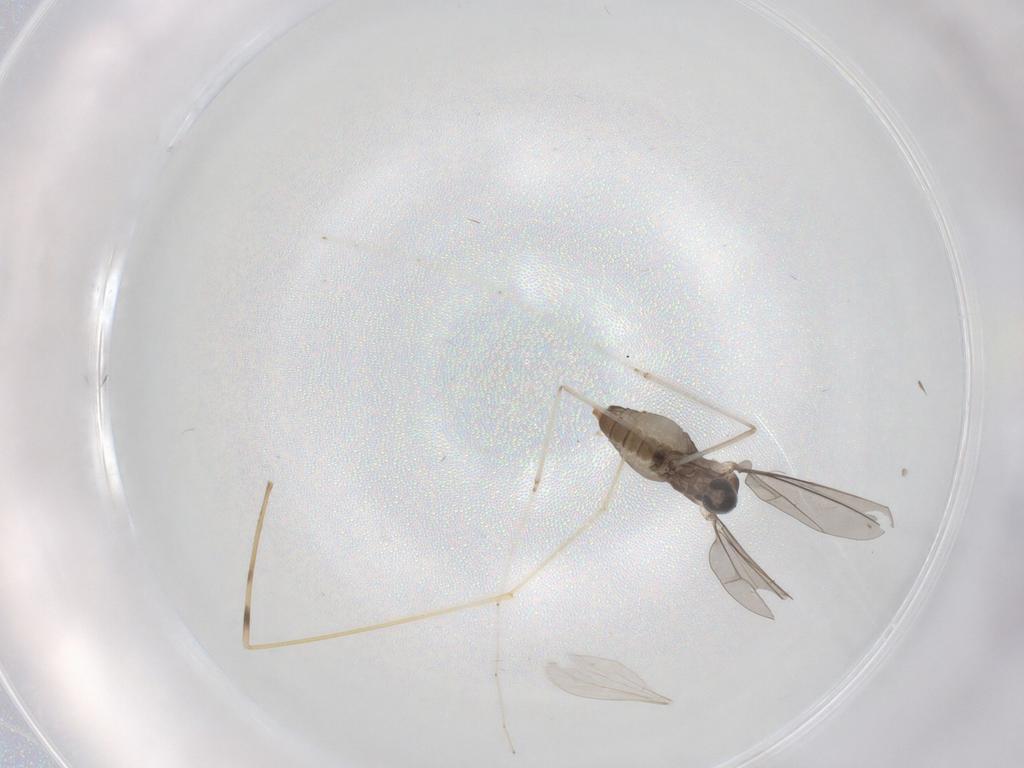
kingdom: Animalia
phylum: Arthropoda
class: Insecta
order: Diptera
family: Cecidomyiidae
